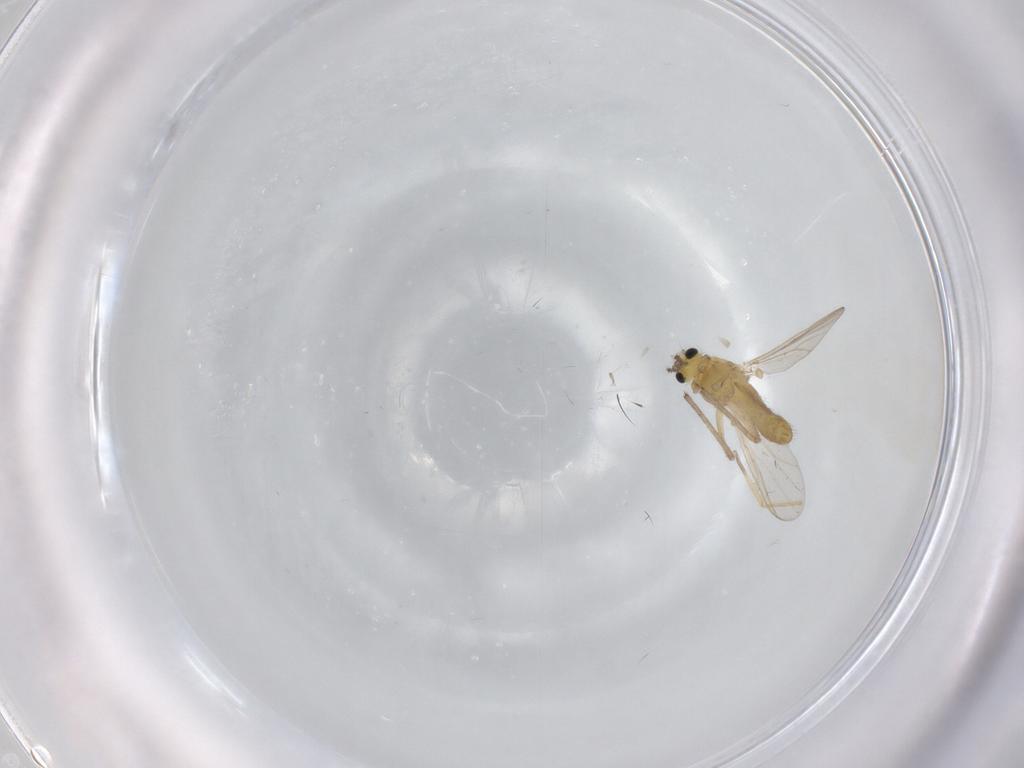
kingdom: Animalia
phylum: Arthropoda
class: Insecta
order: Diptera
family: Chironomidae
